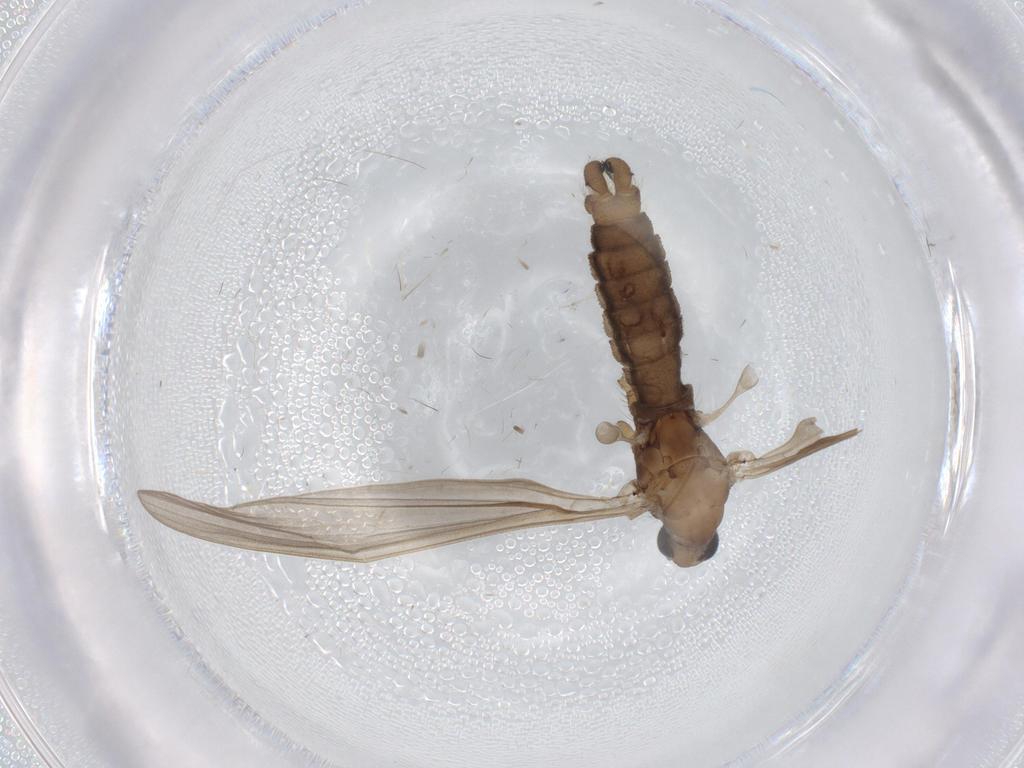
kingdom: Animalia
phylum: Arthropoda
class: Insecta
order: Diptera
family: Cecidomyiidae
